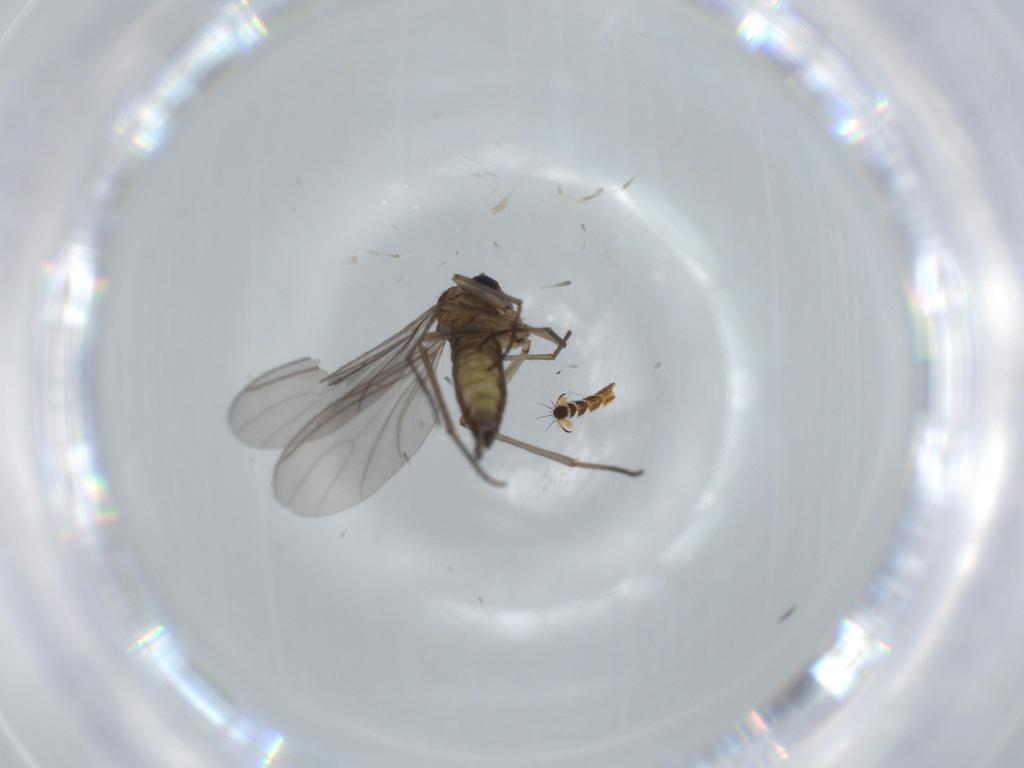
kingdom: Animalia
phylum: Arthropoda
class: Insecta
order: Diptera
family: Pipunculidae
